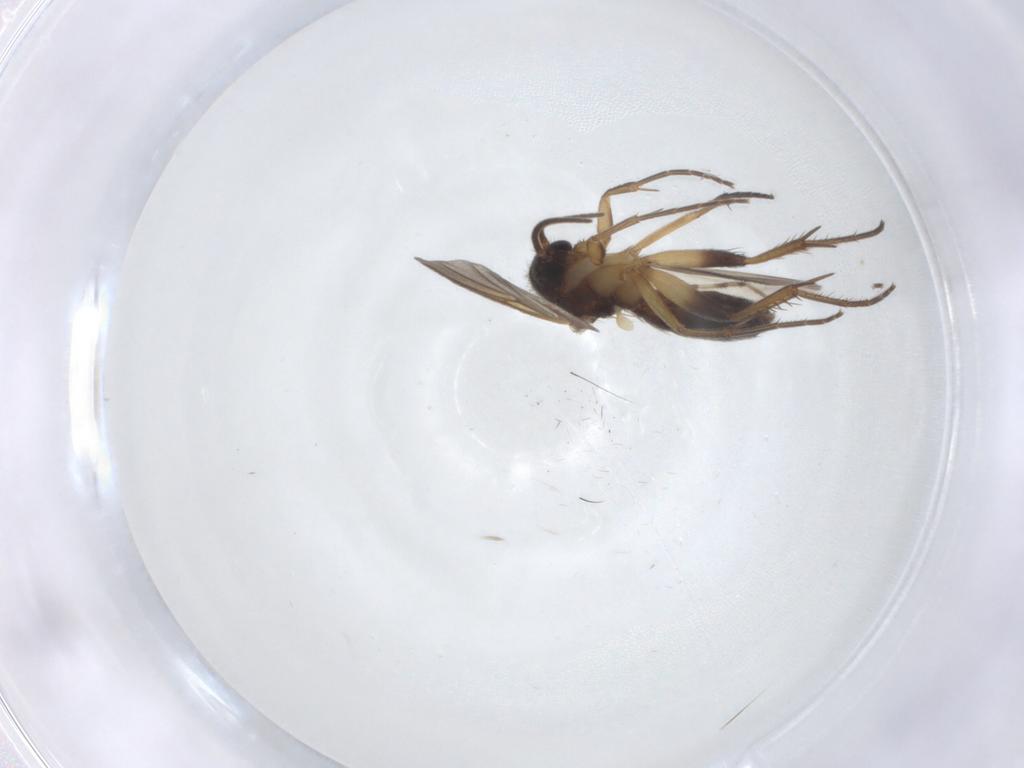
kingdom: Animalia
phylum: Arthropoda
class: Insecta
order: Diptera
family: Mycetophilidae
